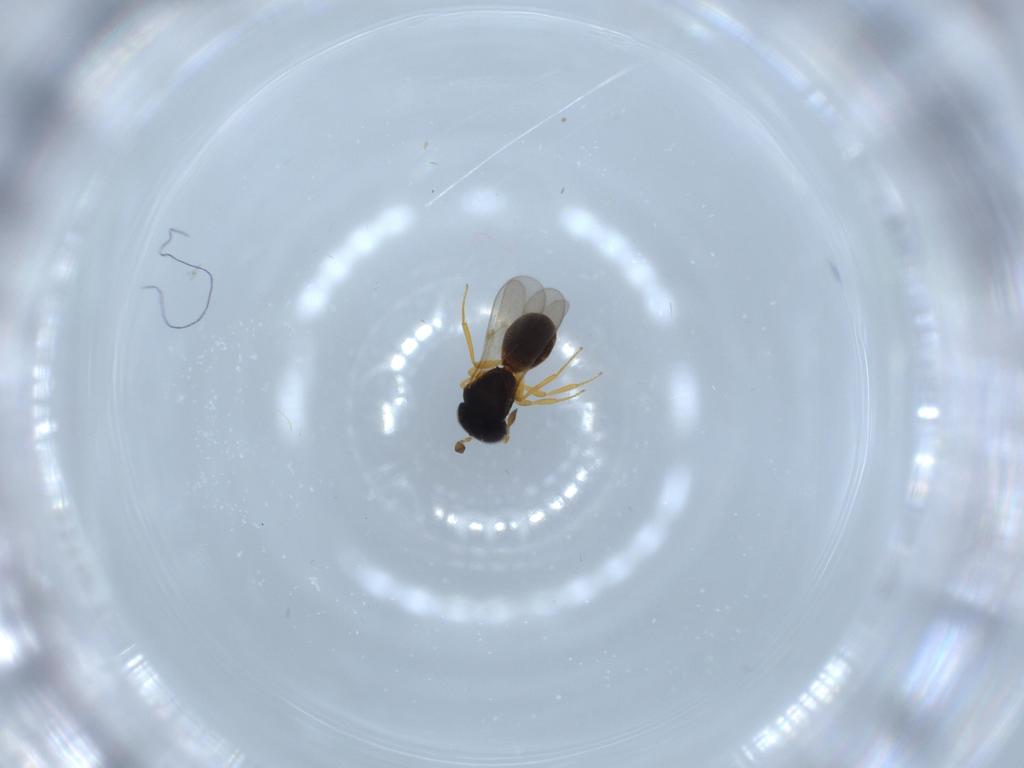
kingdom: Animalia
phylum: Arthropoda
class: Insecta
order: Hymenoptera
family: Scelionidae
